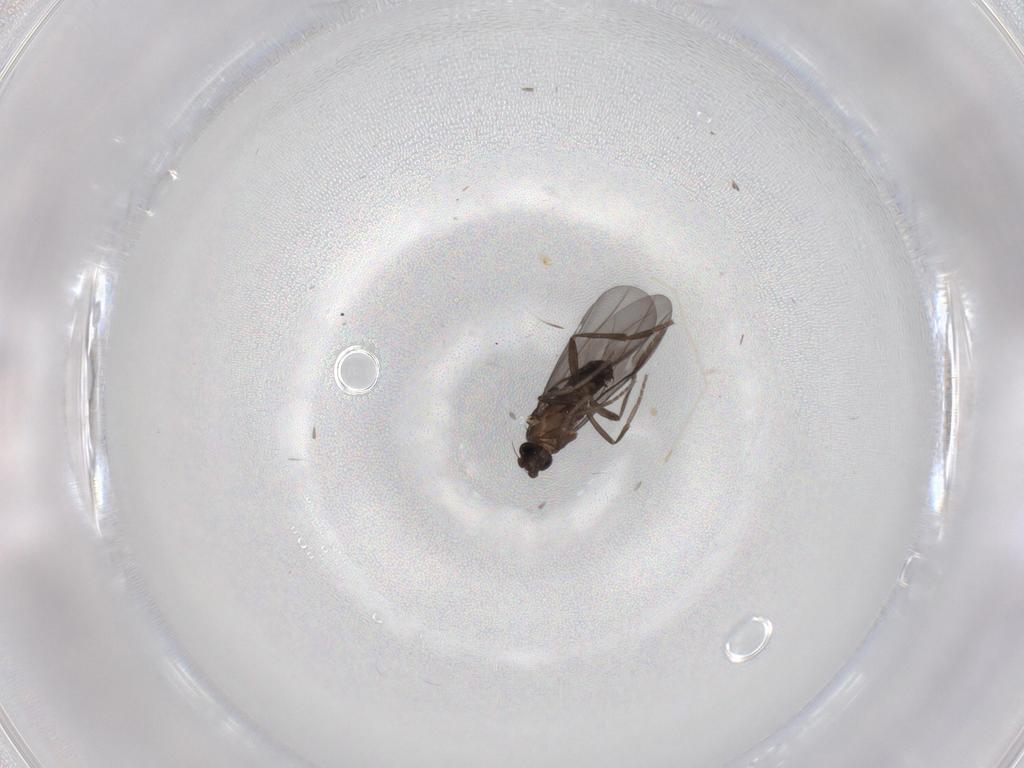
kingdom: Animalia
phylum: Arthropoda
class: Insecta
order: Diptera
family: Phoridae
